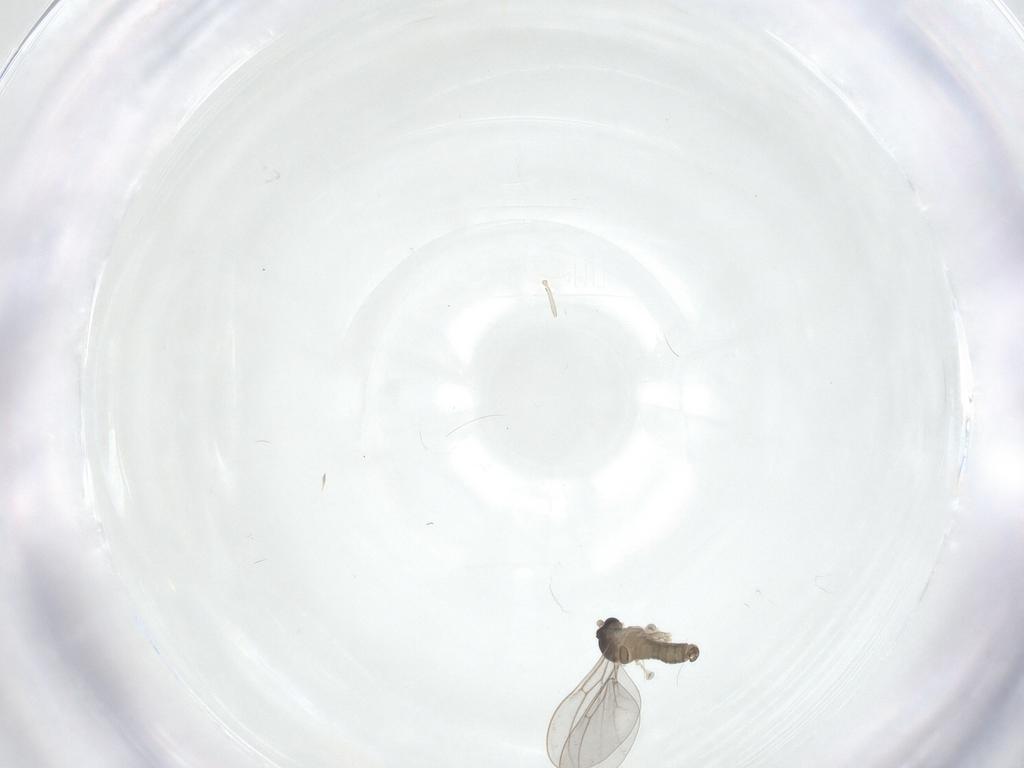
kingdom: Animalia
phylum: Arthropoda
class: Insecta
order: Diptera
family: Cecidomyiidae
